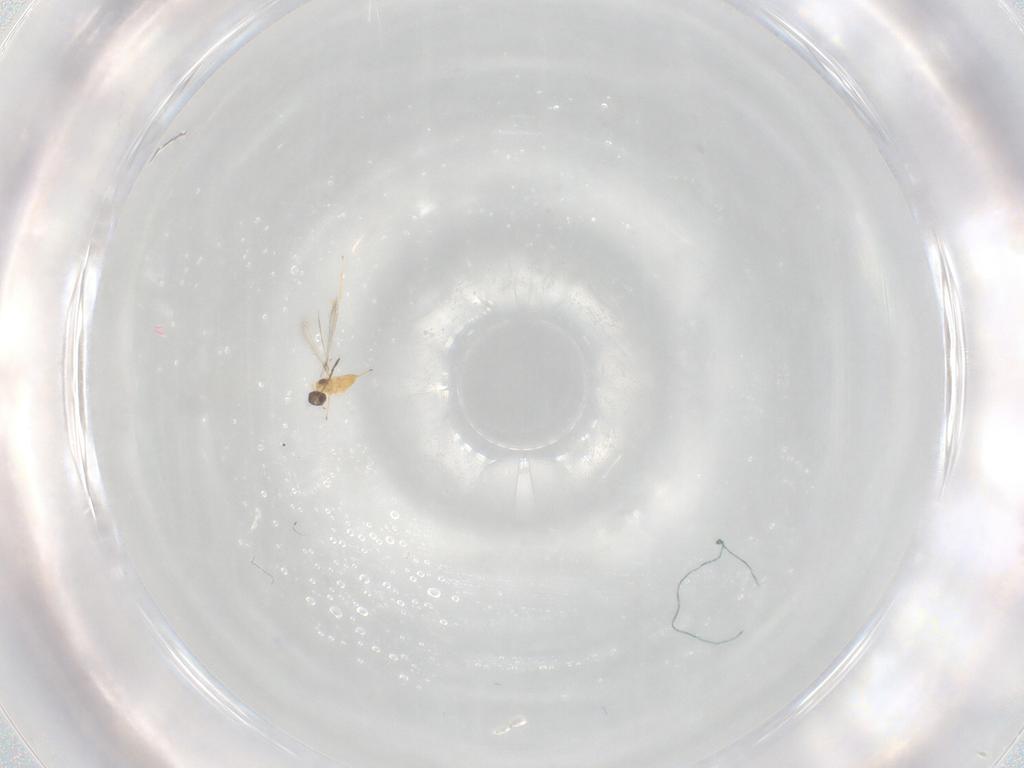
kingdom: Animalia
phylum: Arthropoda
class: Insecta
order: Hymenoptera
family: Mymaridae
